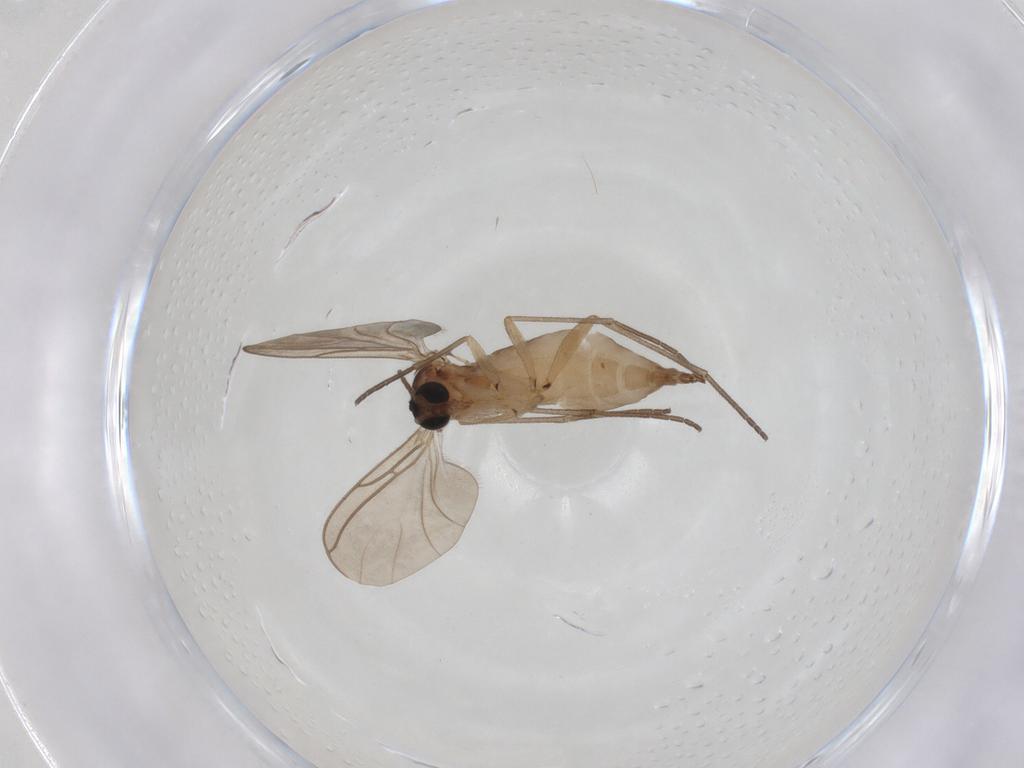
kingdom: Animalia
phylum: Arthropoda
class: Insecta
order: Diptera
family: Sciaridae
